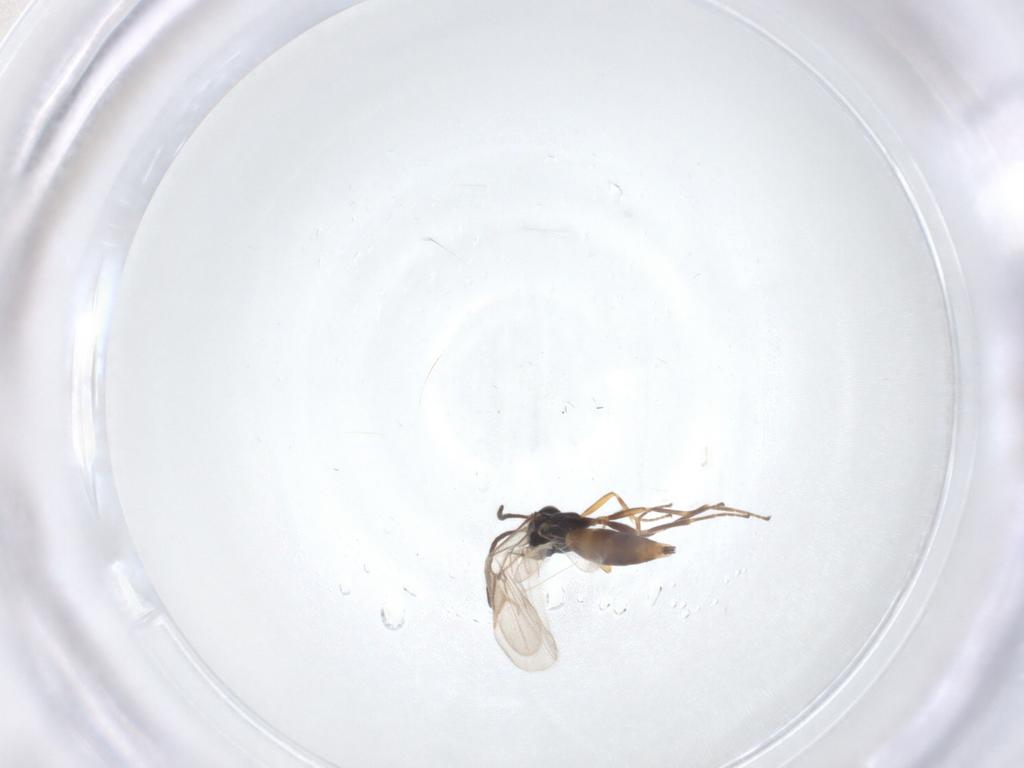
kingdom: Animalia
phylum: Arthropoda
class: Insecta
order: Hymenoptera
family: Braconidae
